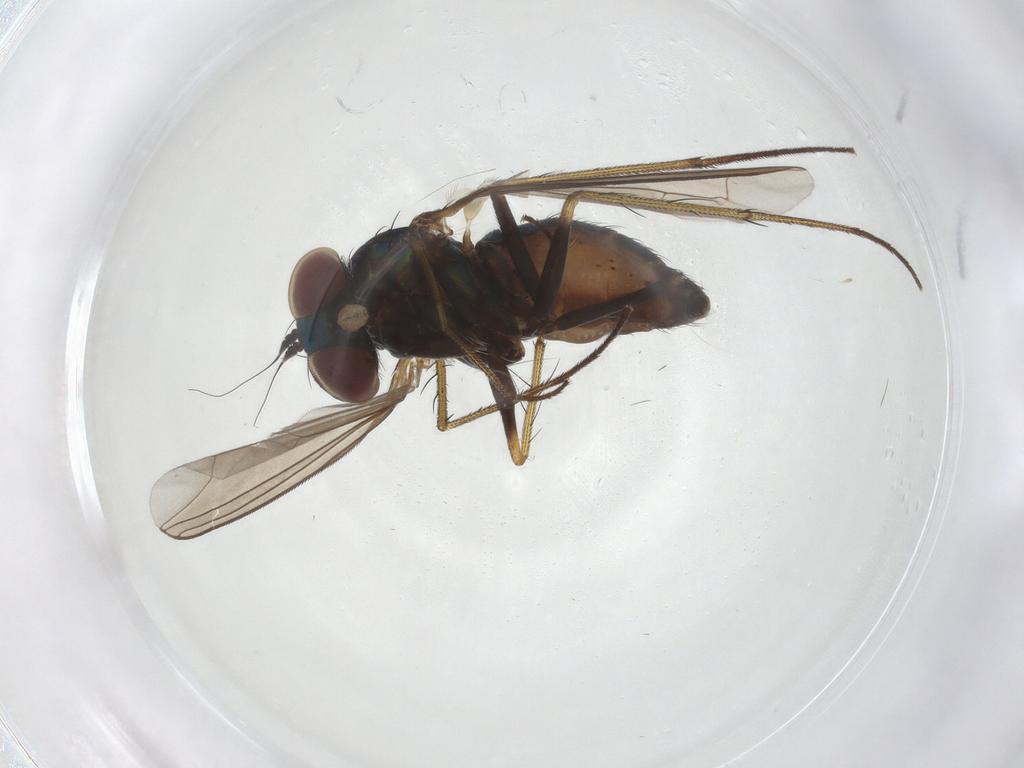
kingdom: Animalia
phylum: Arthropoda
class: Insecta
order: Diptera
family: Dolichopodidae
